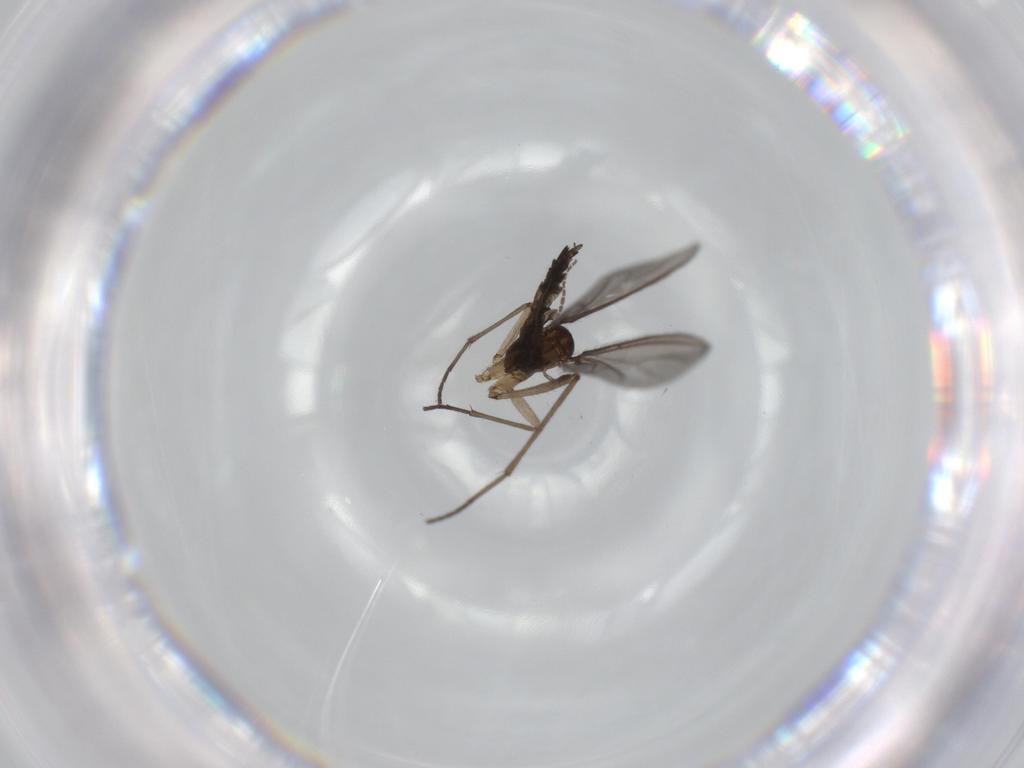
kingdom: Animalia
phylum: Arthropoda
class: Insecta
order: Diptera
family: Sciaridae
